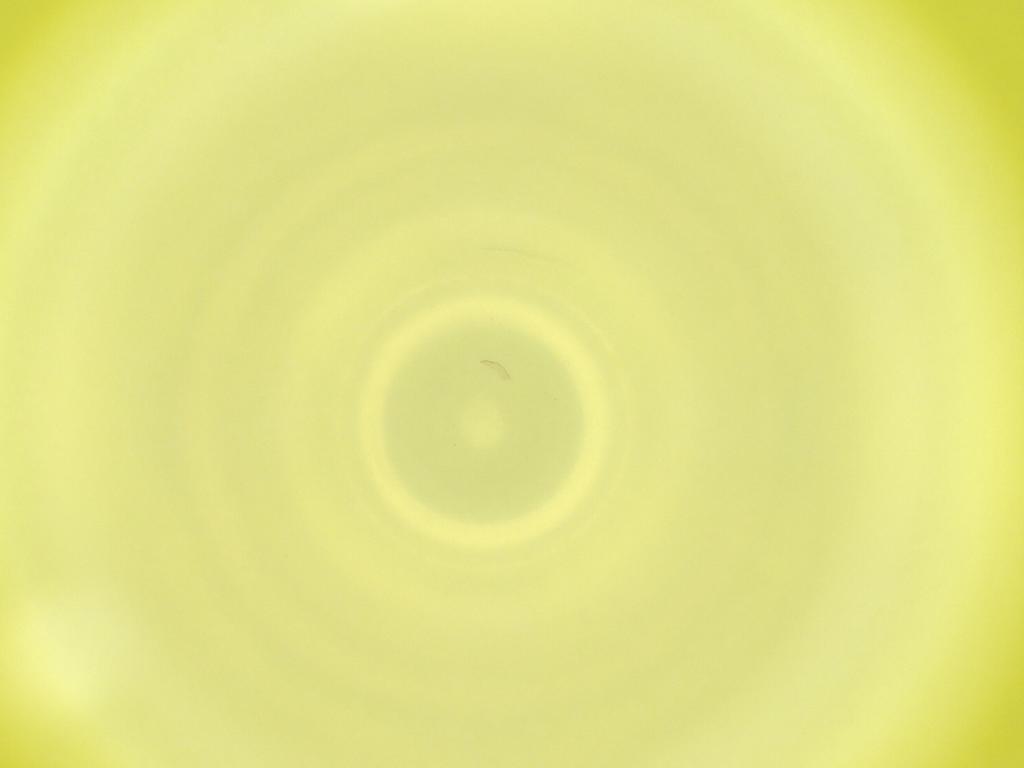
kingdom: Animalia
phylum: Arthropoda
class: Insecta
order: Diptera
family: Cecidomyiidae
